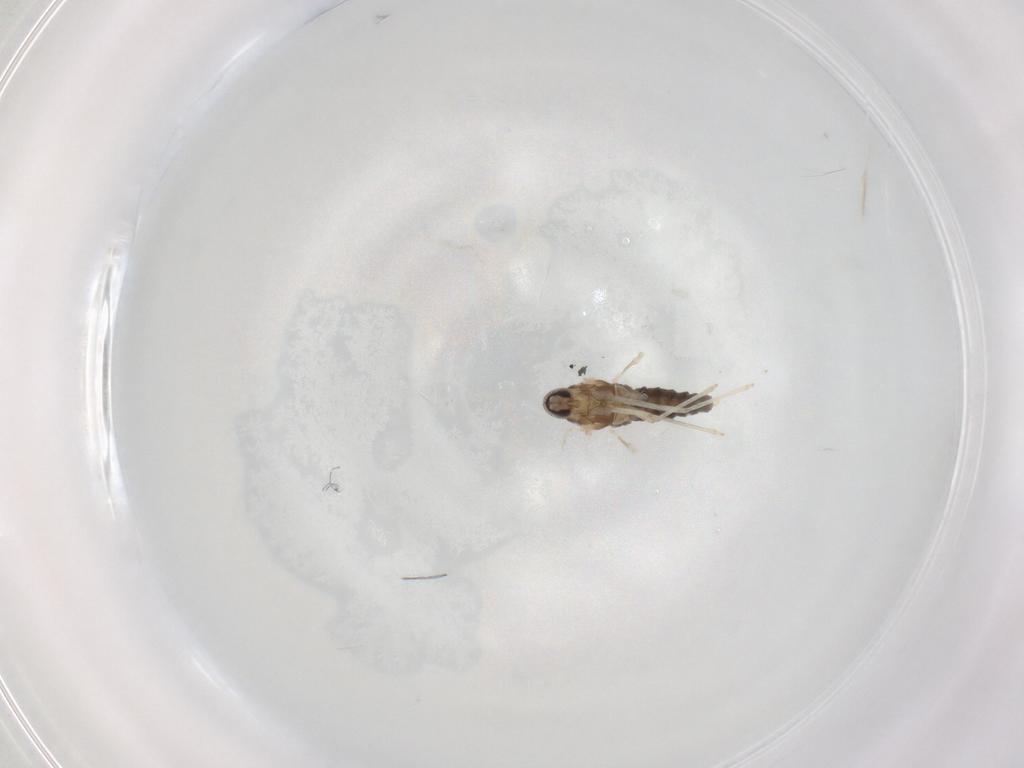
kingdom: Animalia
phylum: Arthropoda
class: Insecta
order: Diptera
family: Cecidomyiidae
